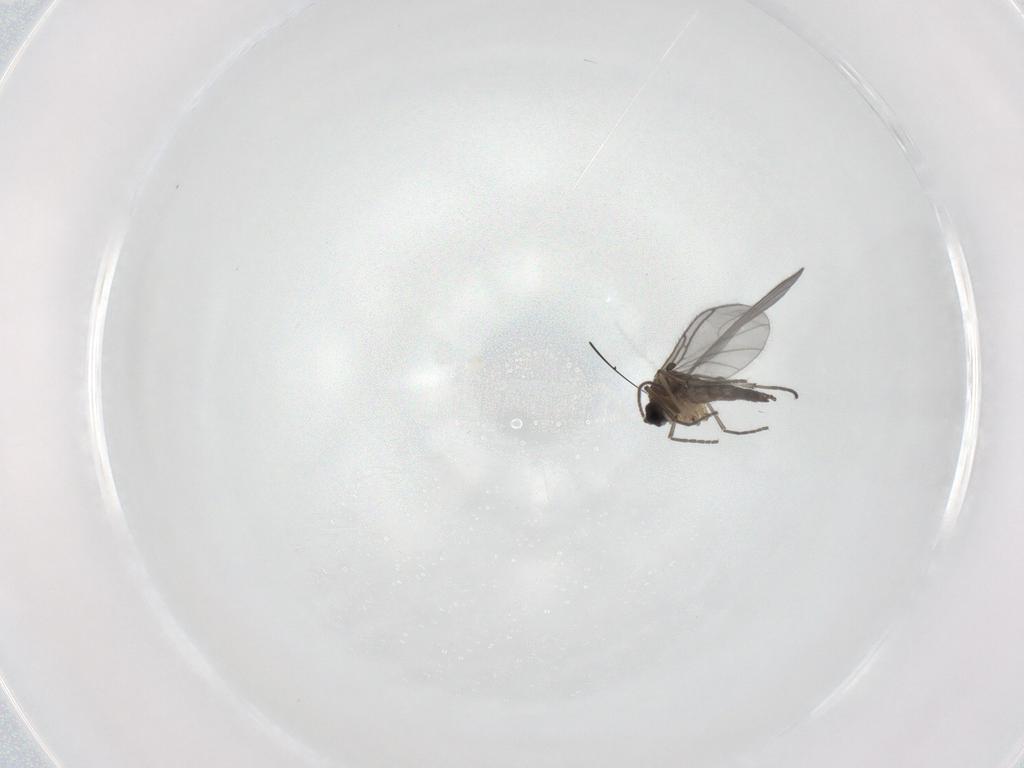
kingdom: Animalia
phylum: Arthropoda
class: Insecta
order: Diptera
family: Sciaridae
